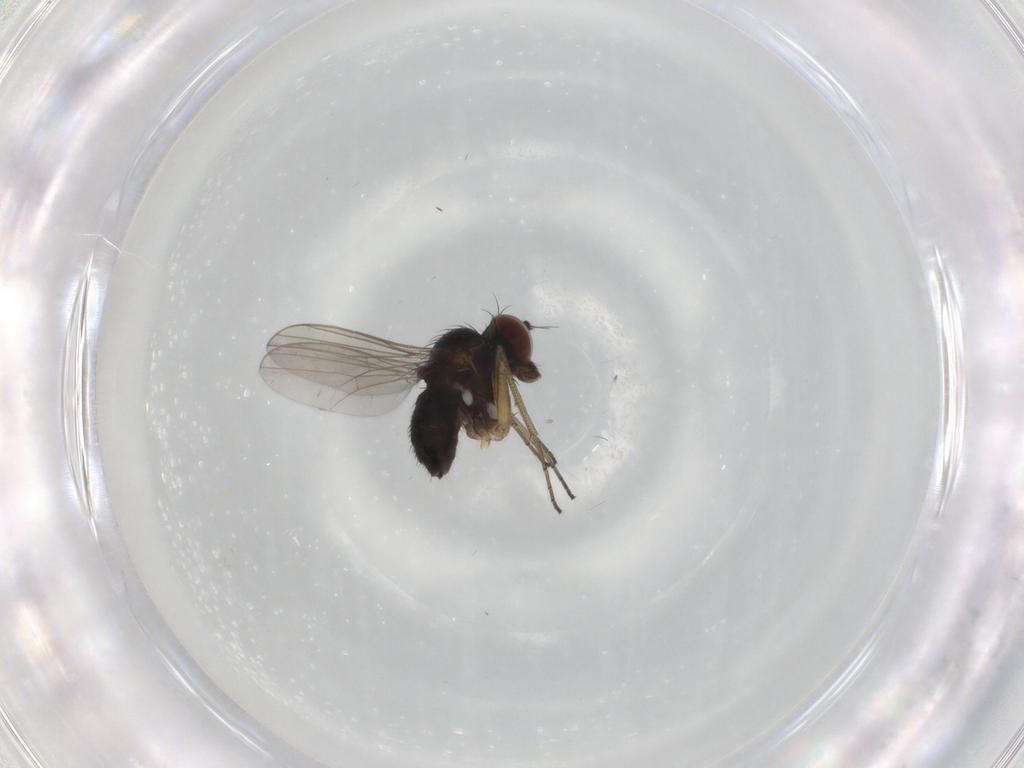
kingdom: Animalia
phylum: Arthropoda
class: Insecta
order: Diptera
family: Dolichopodidae
